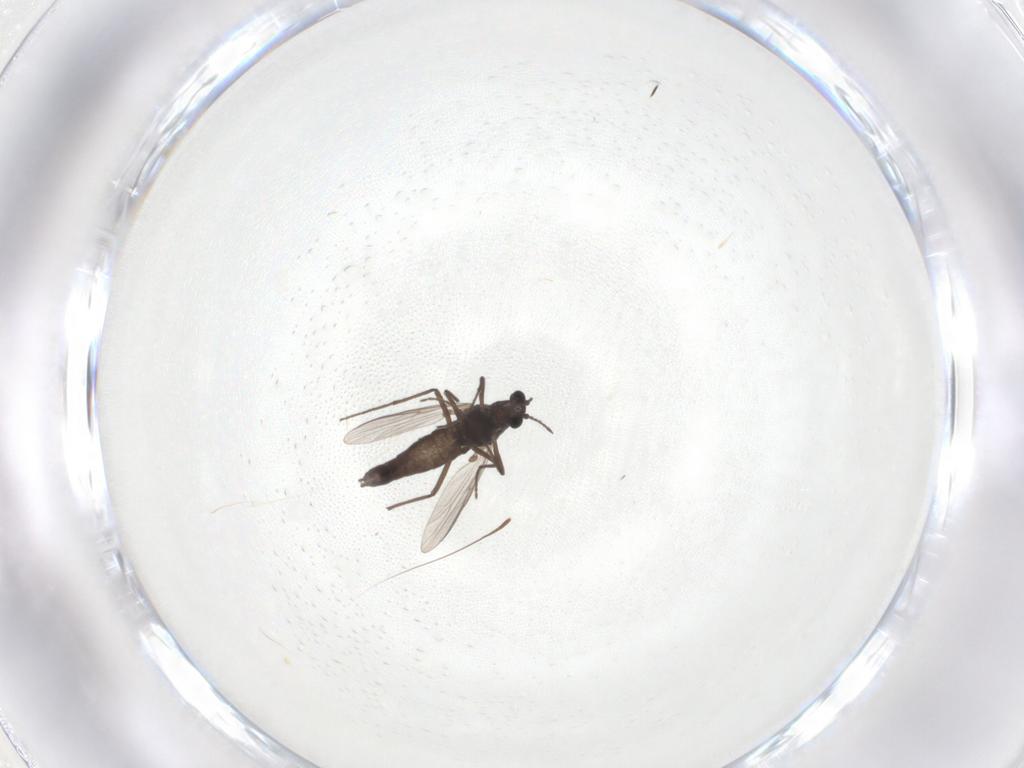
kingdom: Animalia
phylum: Arthropoda
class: Insecta
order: Diptera
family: Chironomidae
